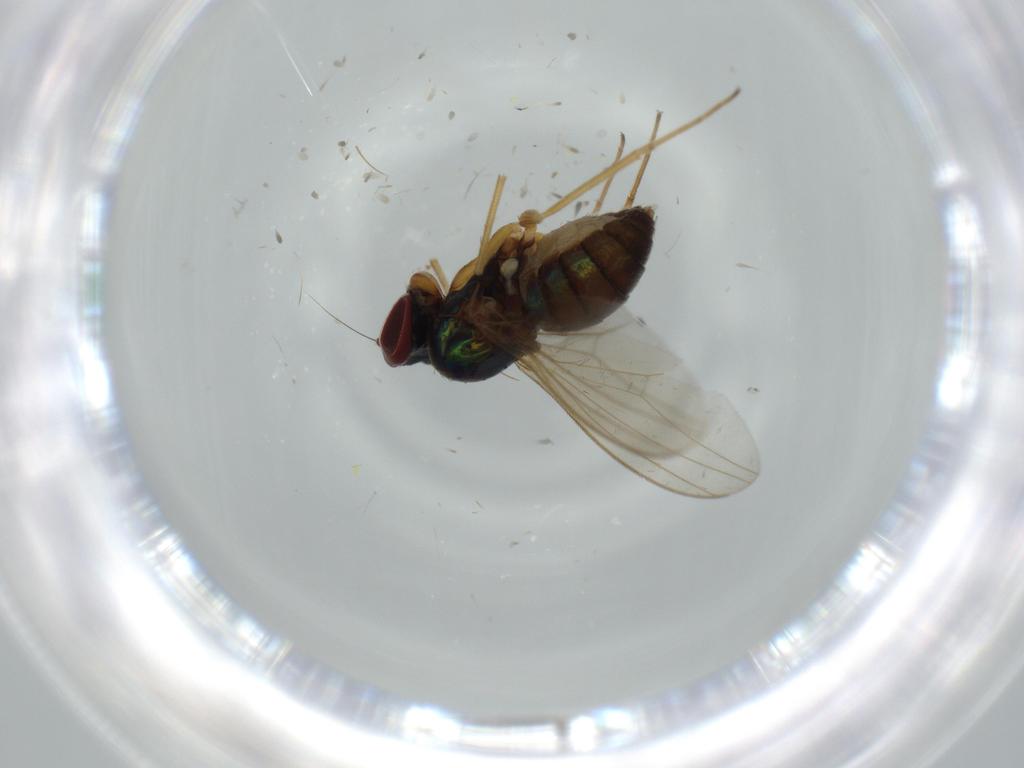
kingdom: Animalia
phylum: Arthropoda
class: Insecta
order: Diptera
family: Dolichopodidae
